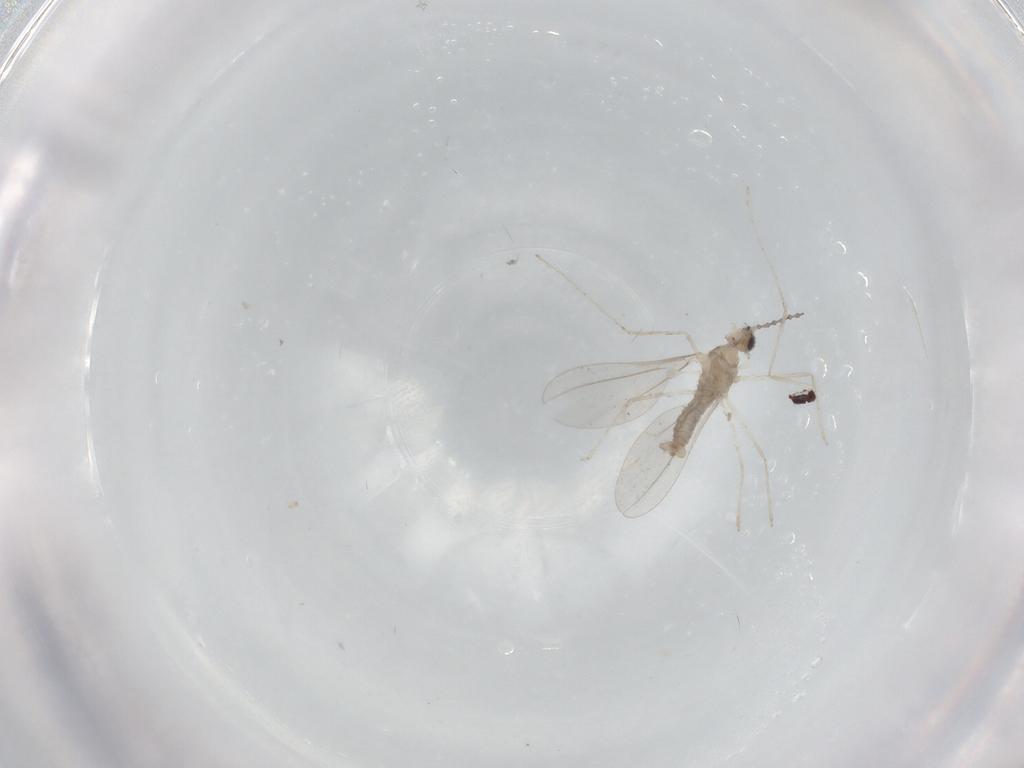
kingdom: Animalia
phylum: Arthropoda
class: Insecta
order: Diptera
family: Cecidomyiidae
